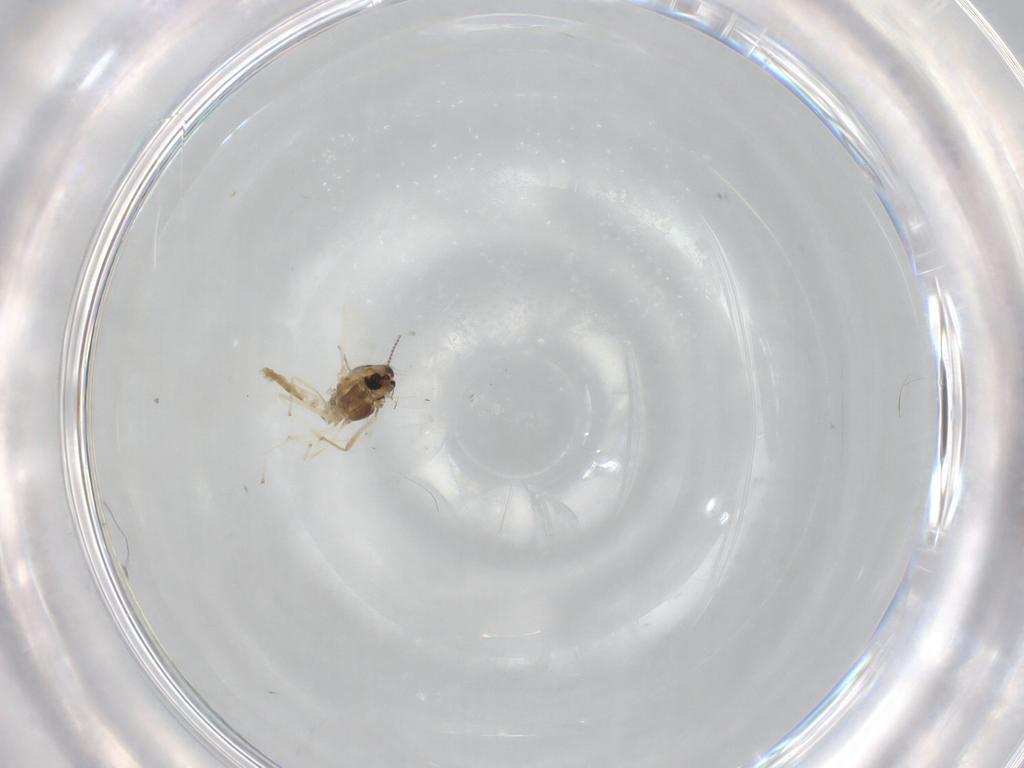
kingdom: Animalia
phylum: Arthropoda
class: Insecta
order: Diptera
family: Chironomidae
